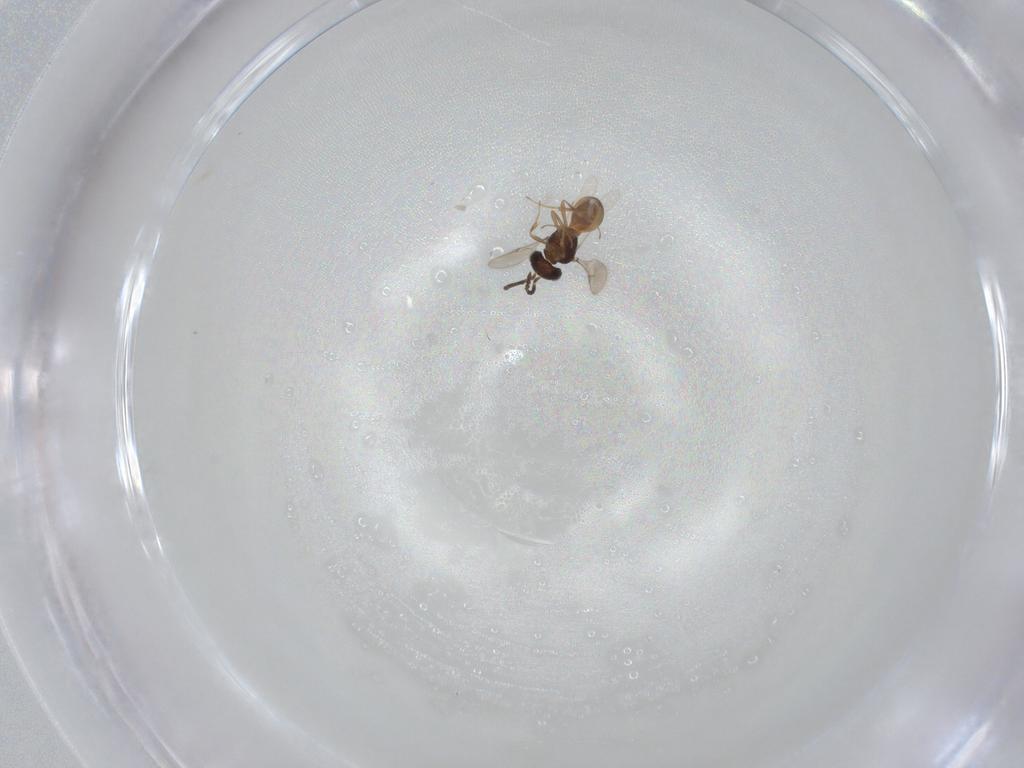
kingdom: Animalia
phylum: Arthropoda
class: Insecta
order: Hymenoptera
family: Scelionidae
